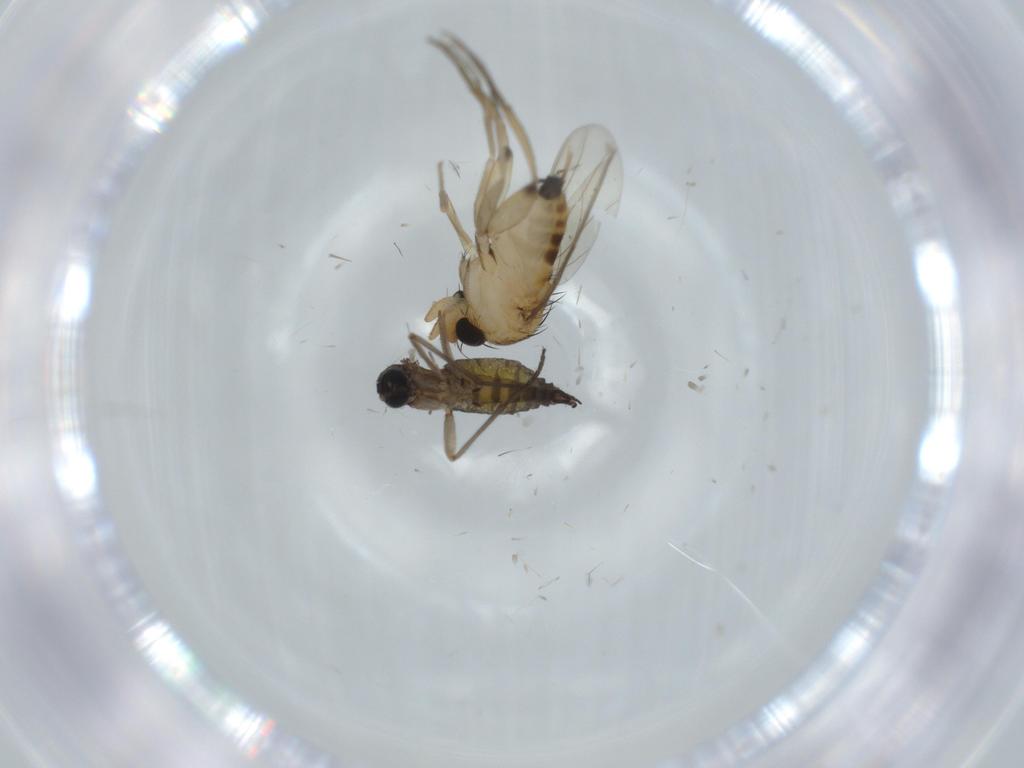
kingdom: Animalia
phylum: Arthropoda
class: Insecta
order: Diptera
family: Sciaridae
